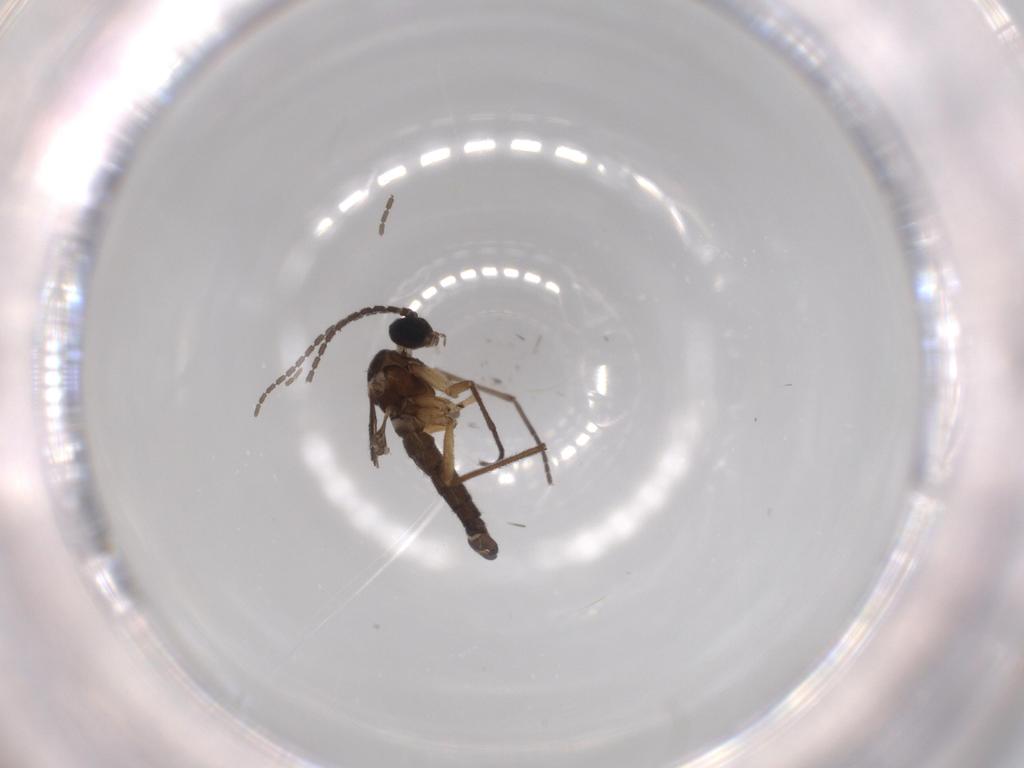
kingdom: Animalia
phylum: Arthropoda
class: Insecta
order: Diptera
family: Sciaridae
